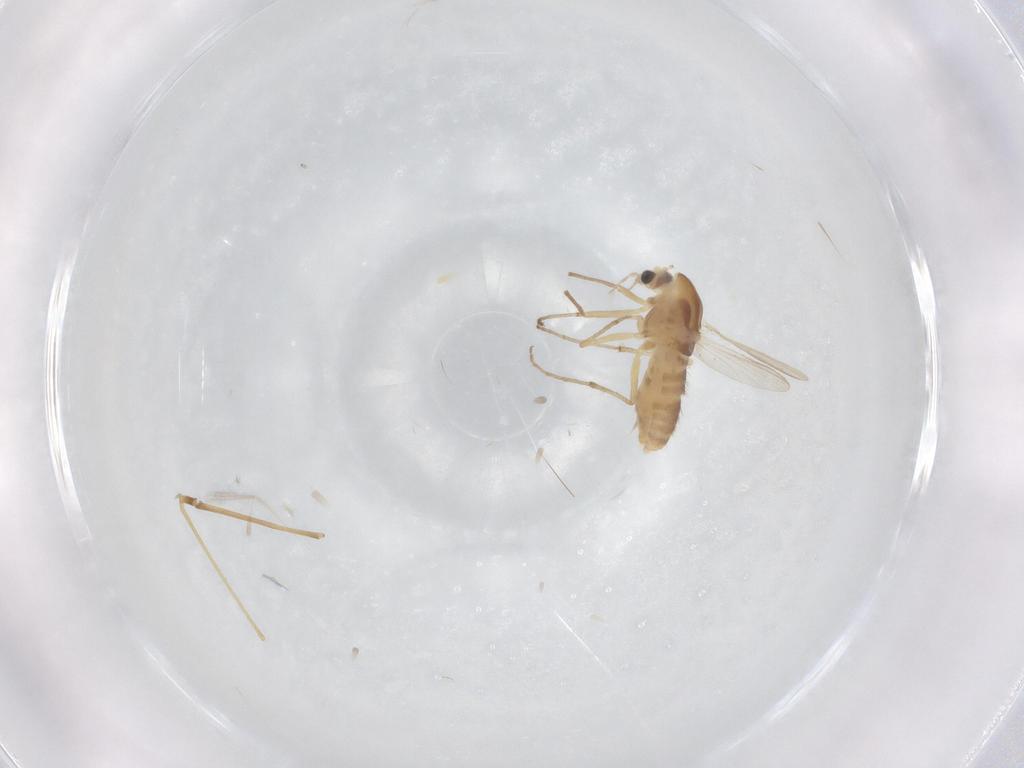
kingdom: Animalia
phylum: Arthropoda
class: Insecta
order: Diptera
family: Chironomidae
